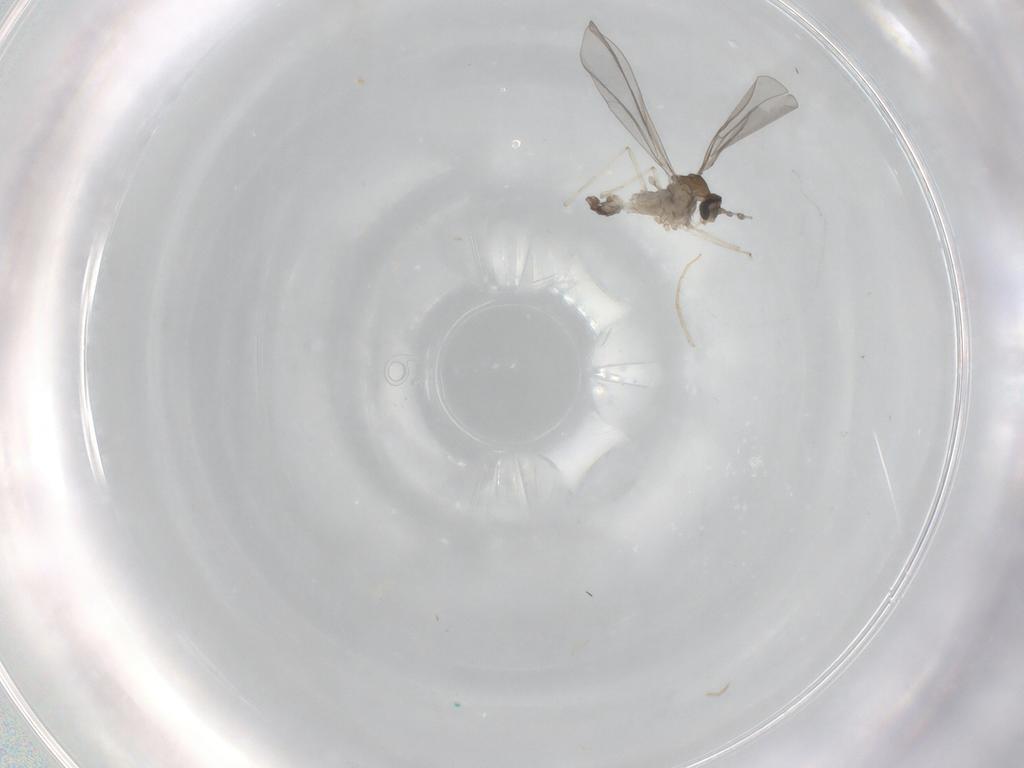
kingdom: Animalia
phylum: Arthropoda
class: Insecta
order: Diptera
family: Cecidomyiidae
